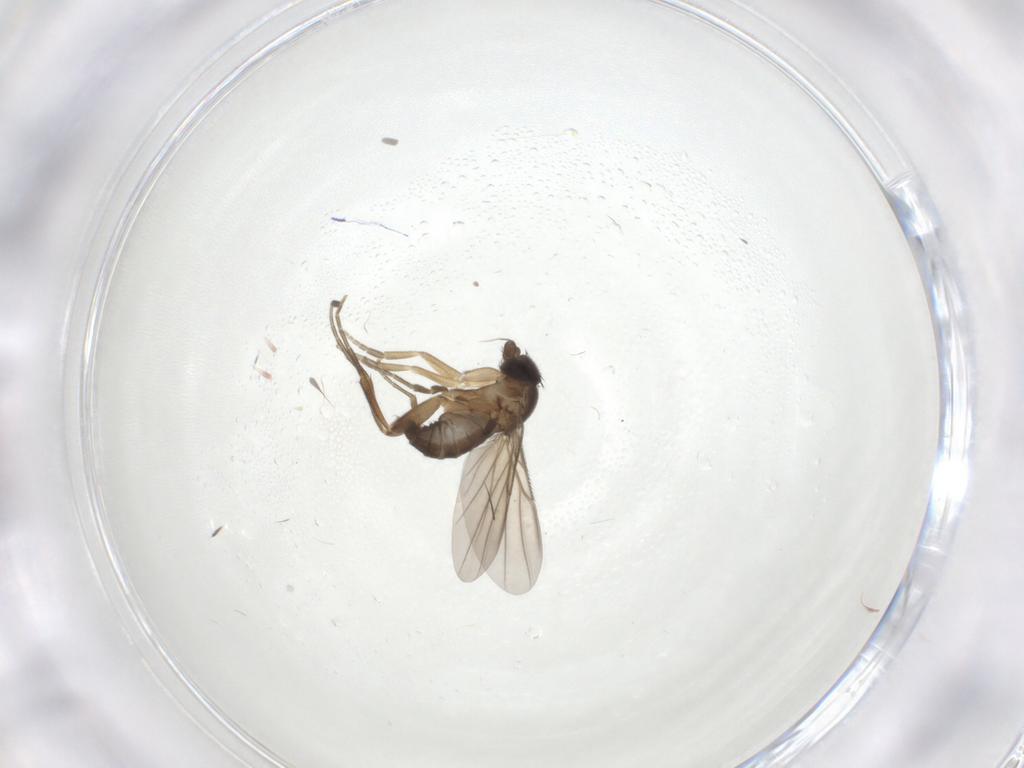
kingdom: Animalia
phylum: Arthropoda
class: Insecta
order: Diptera
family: Phoridae
